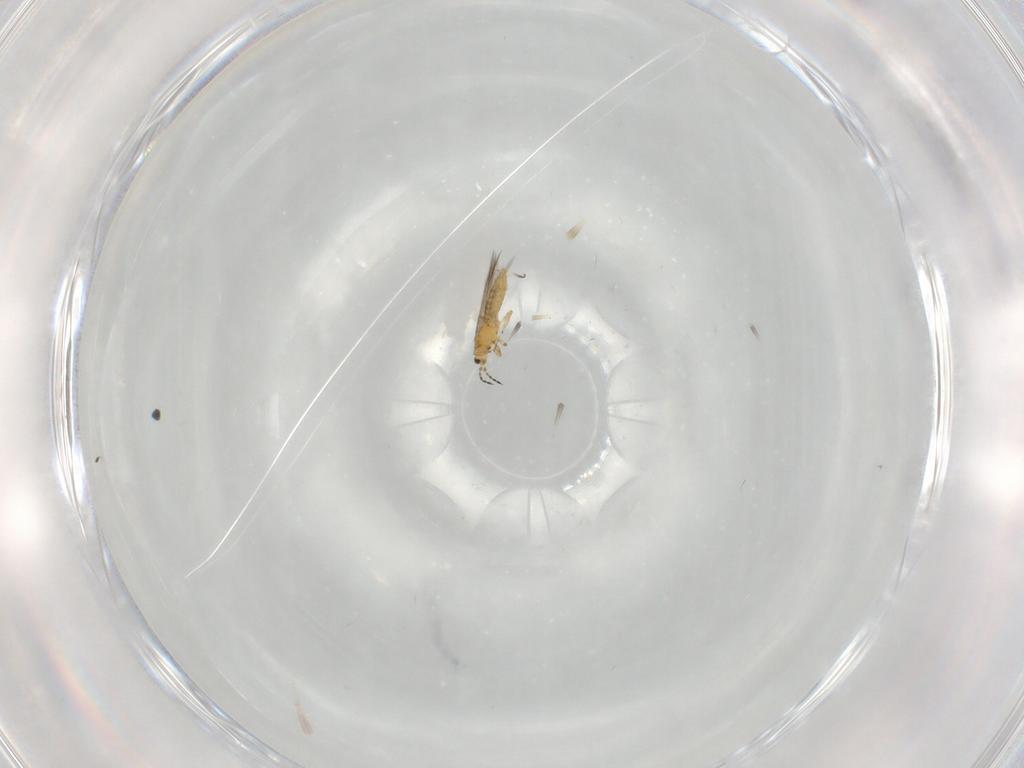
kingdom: Animalia
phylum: Arthropoda
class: Insecta
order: Thysanoptera
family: Thripidae
